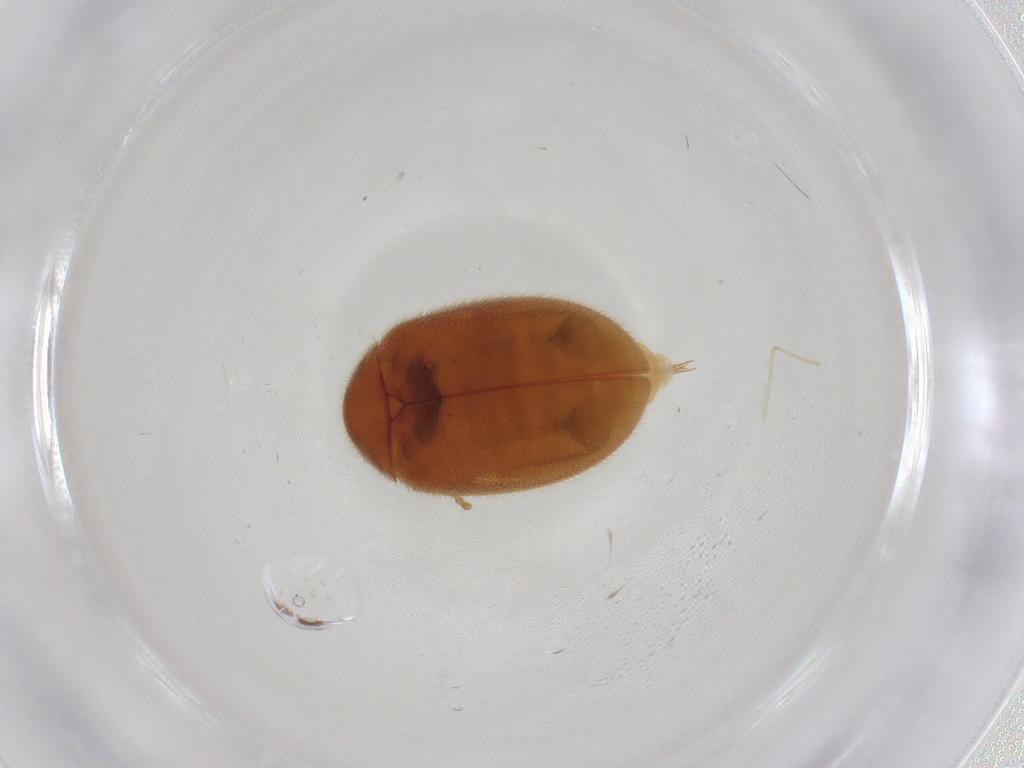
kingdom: Animalia
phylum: Arthropoda
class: Insecta
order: Coleoptera
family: Scirtidae
